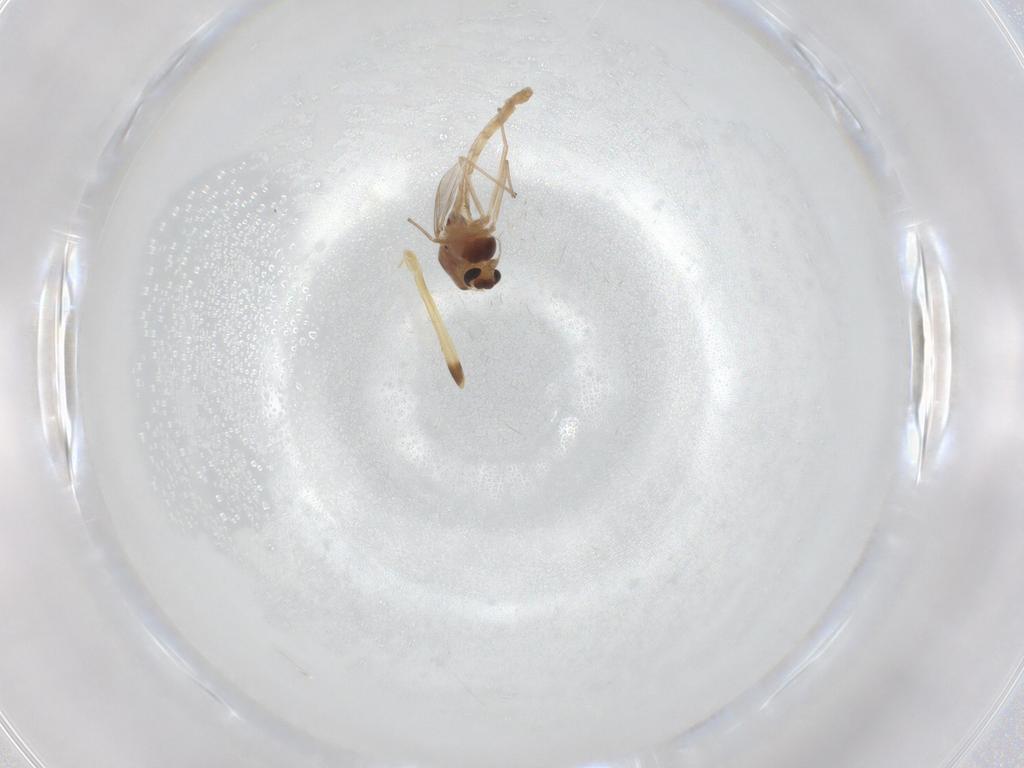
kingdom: Animalia
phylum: Arthropoda
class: Insecta
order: Diptera
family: Chironomidae
